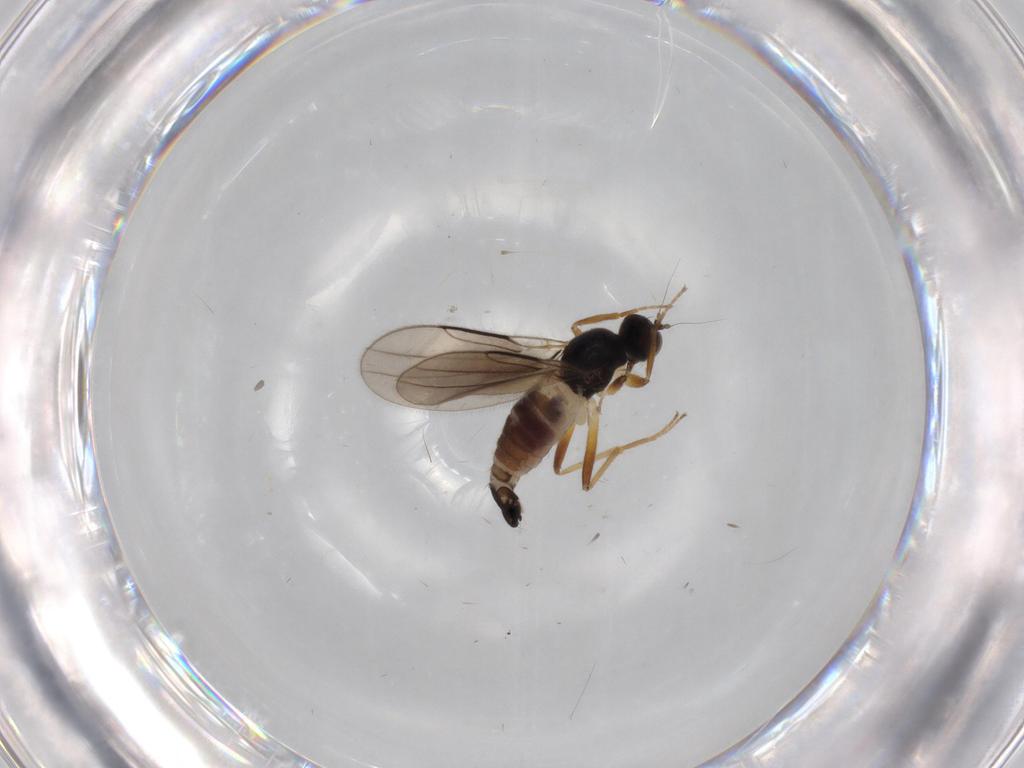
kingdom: Animalia
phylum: Arthropoda
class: Insecta
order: Diptera
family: Hybotidae
